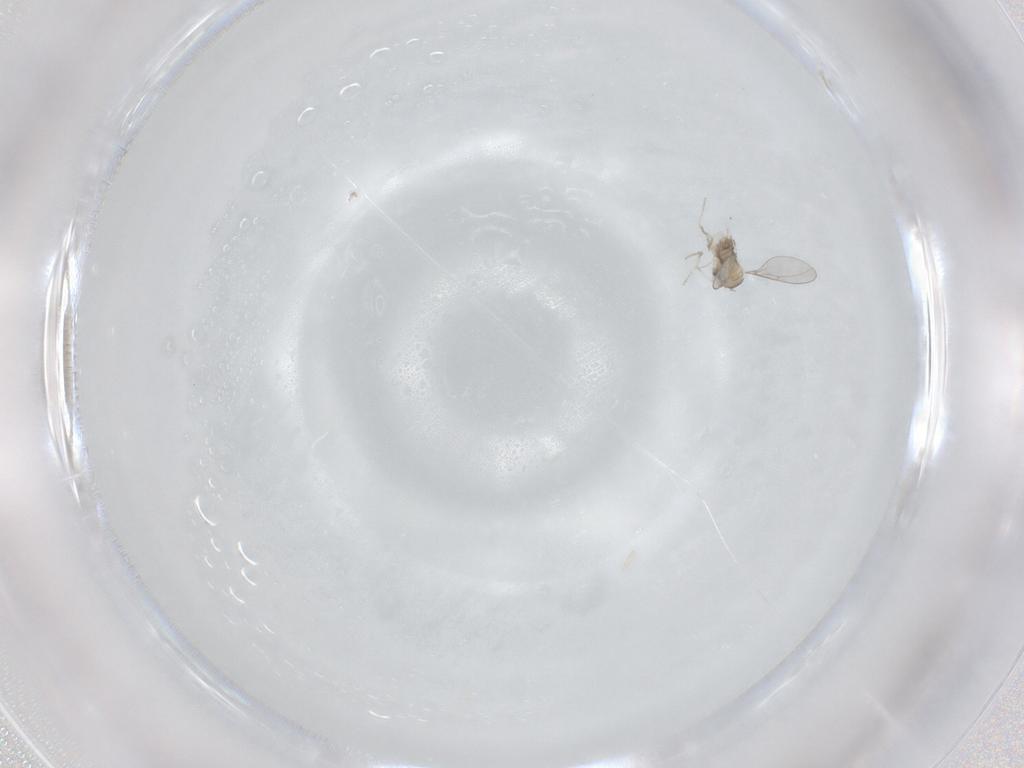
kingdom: Animalia
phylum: Arthropoda
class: Insecta
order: Diptera
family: Cecidomyiidae
